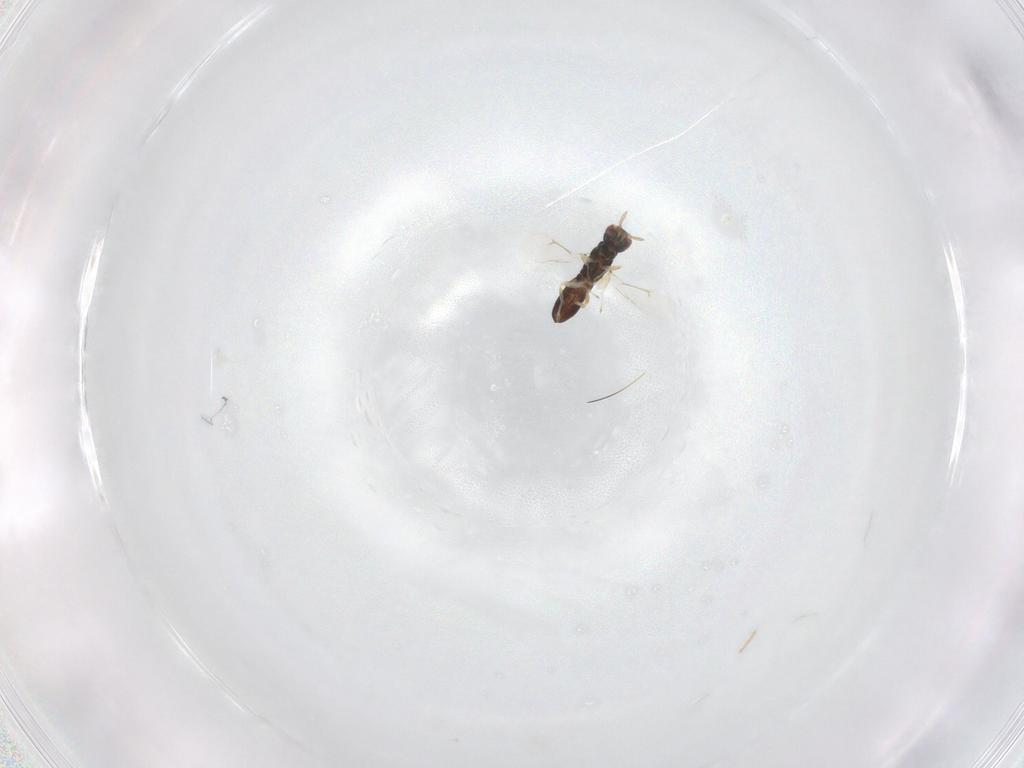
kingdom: Animalia
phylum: Arthropoda
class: Insecta
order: Hymenoptera
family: Eulophidae
